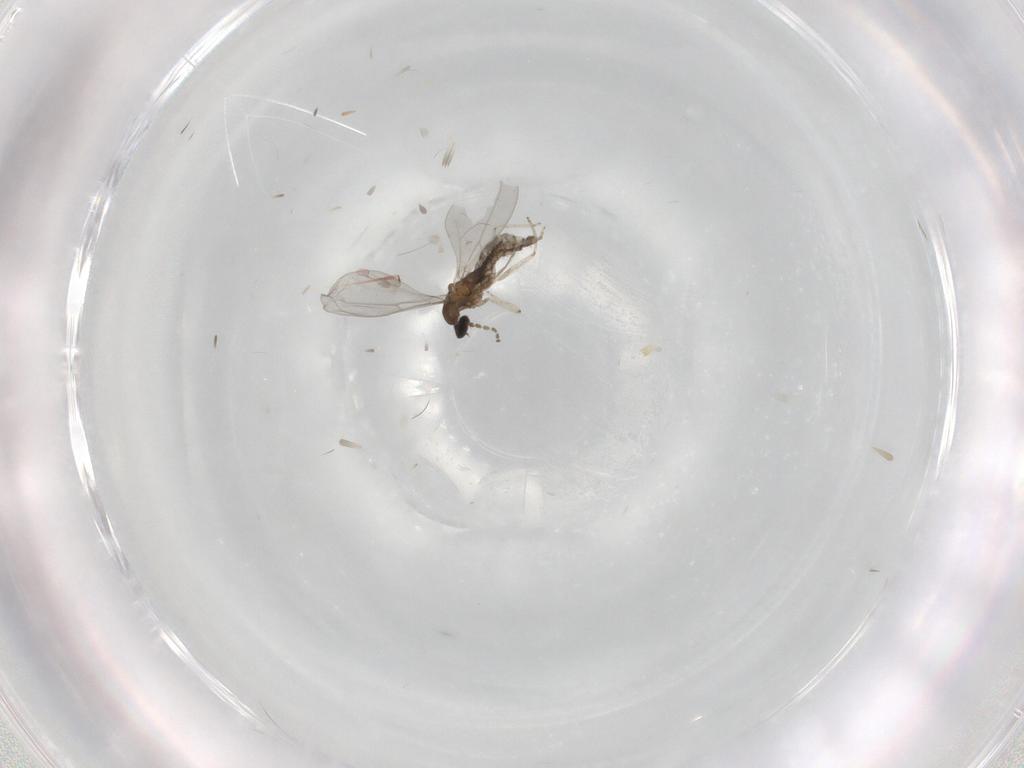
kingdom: Animalia
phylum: Arthropoda
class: Insecta
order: Diptera
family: Cecidomyiidae
